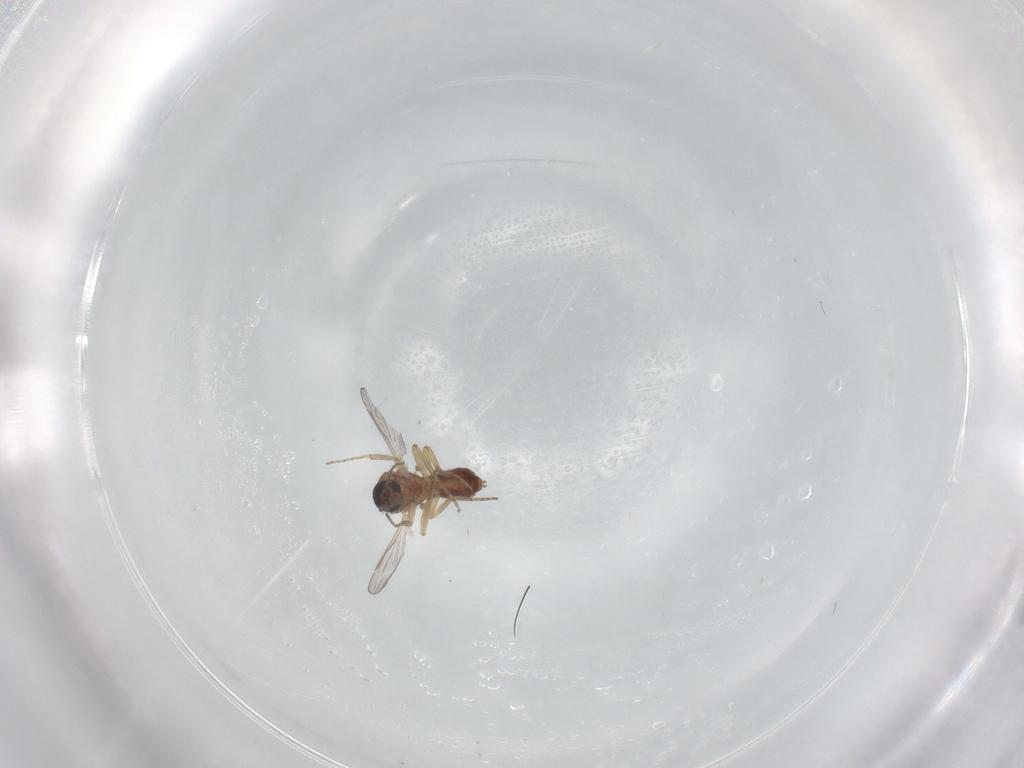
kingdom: Animalia
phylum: Arthropoda
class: Insecta
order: Diptera
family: Ceratopogonidae
